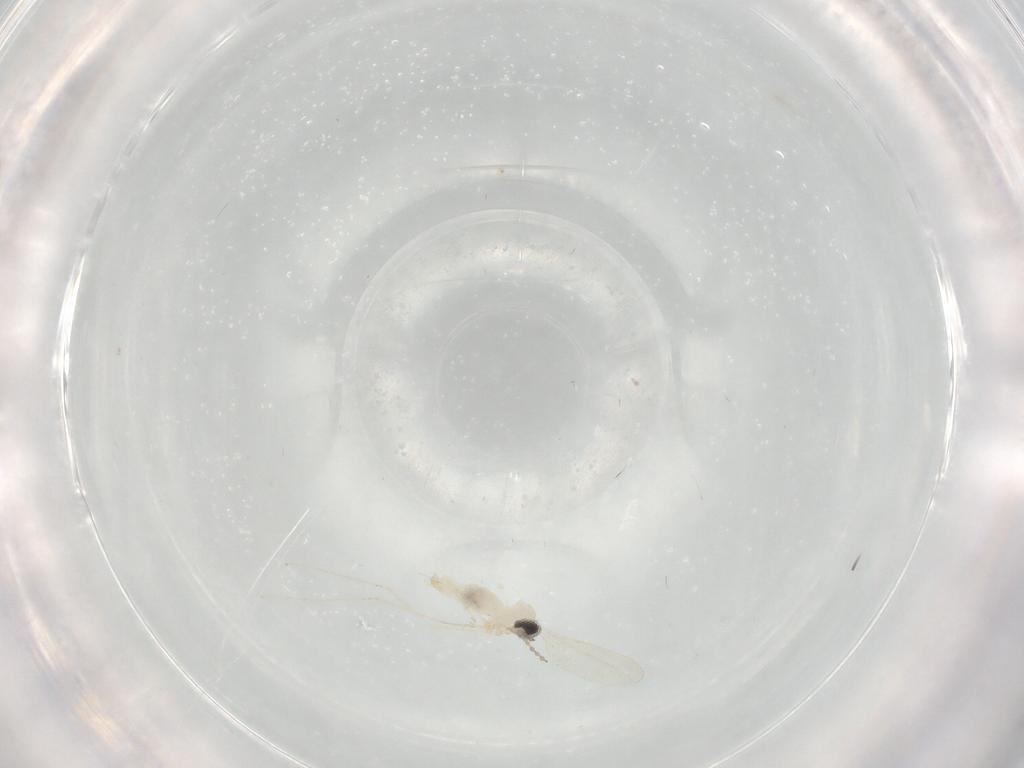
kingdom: Animalia
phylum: Arthropoda
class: Insecta
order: Diptera
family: Cecidomyiidae
